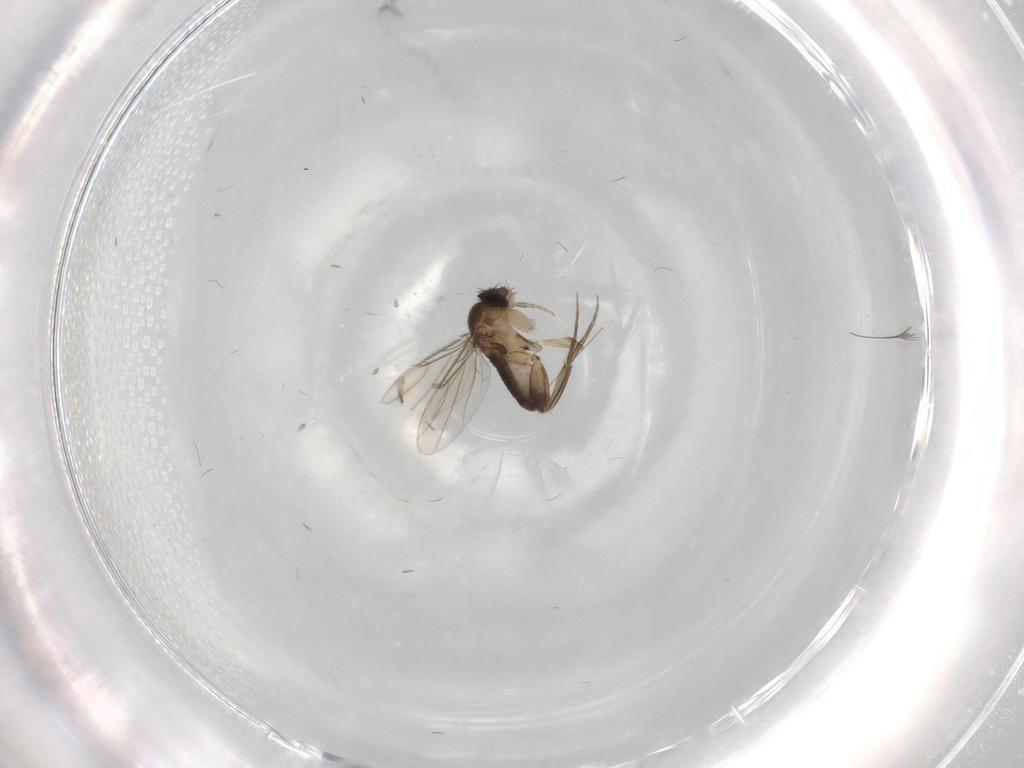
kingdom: Animalia
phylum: Arthropoda
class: Insecta
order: Diptera
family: Phoridae
